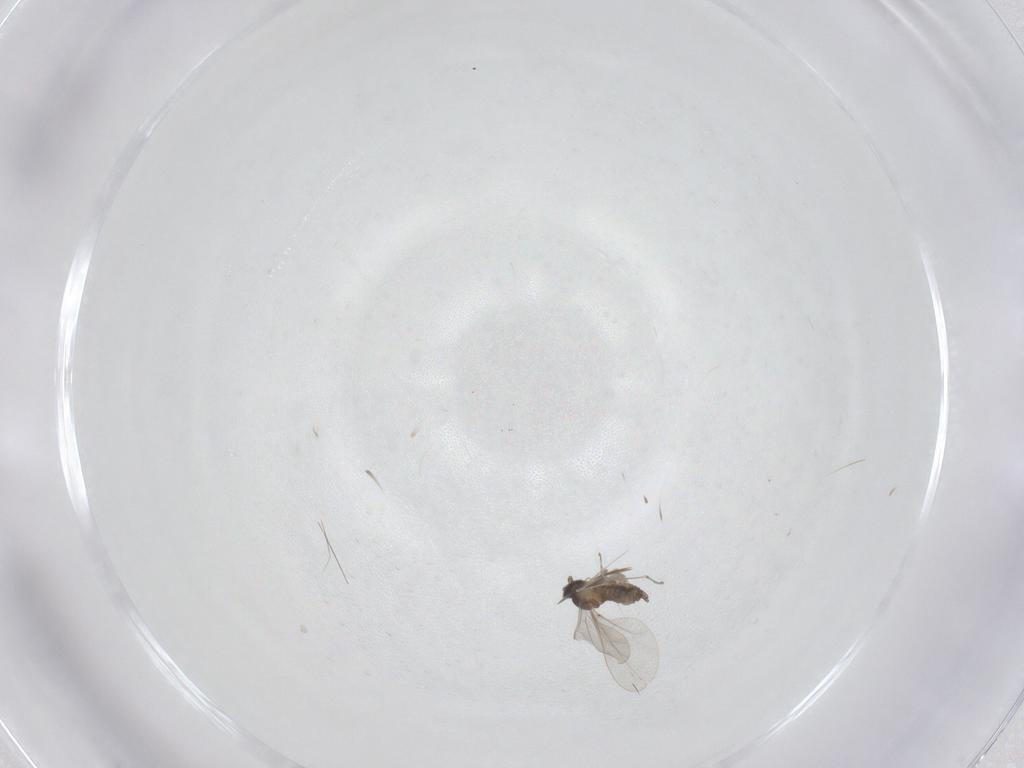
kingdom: Animalia
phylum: Arthropoda
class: Insecta
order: Diptera
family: Cecidomyiidae
